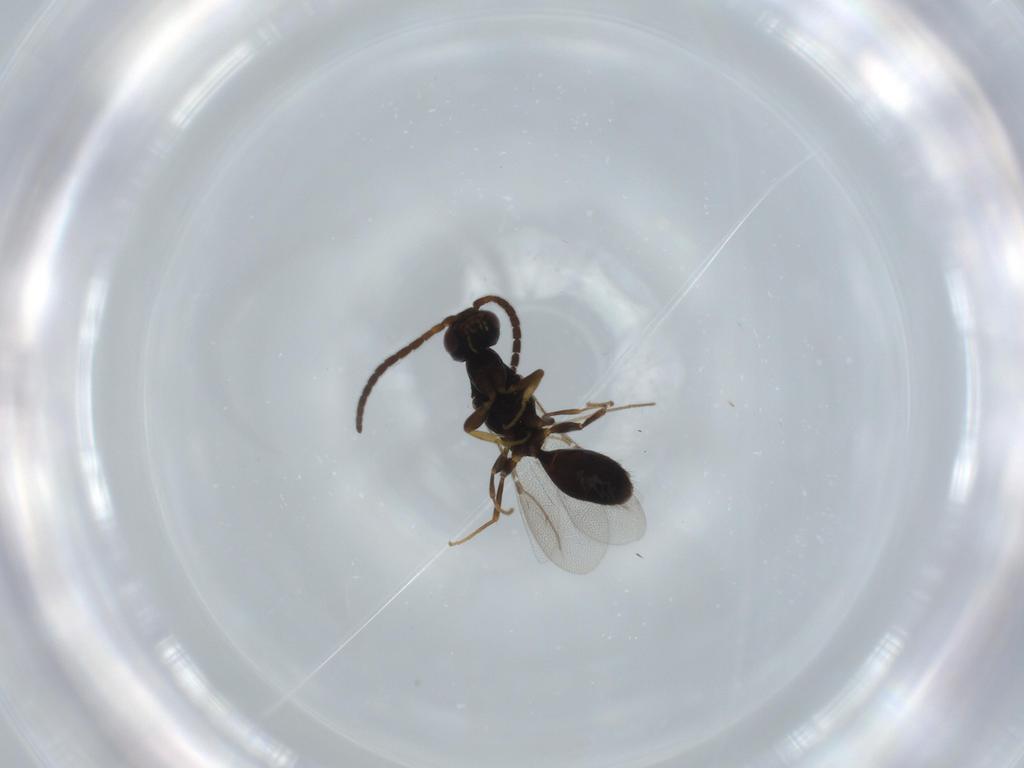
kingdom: Animalia
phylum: Arthropoda
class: Insecta
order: Hymenoptera
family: Bethylidae
